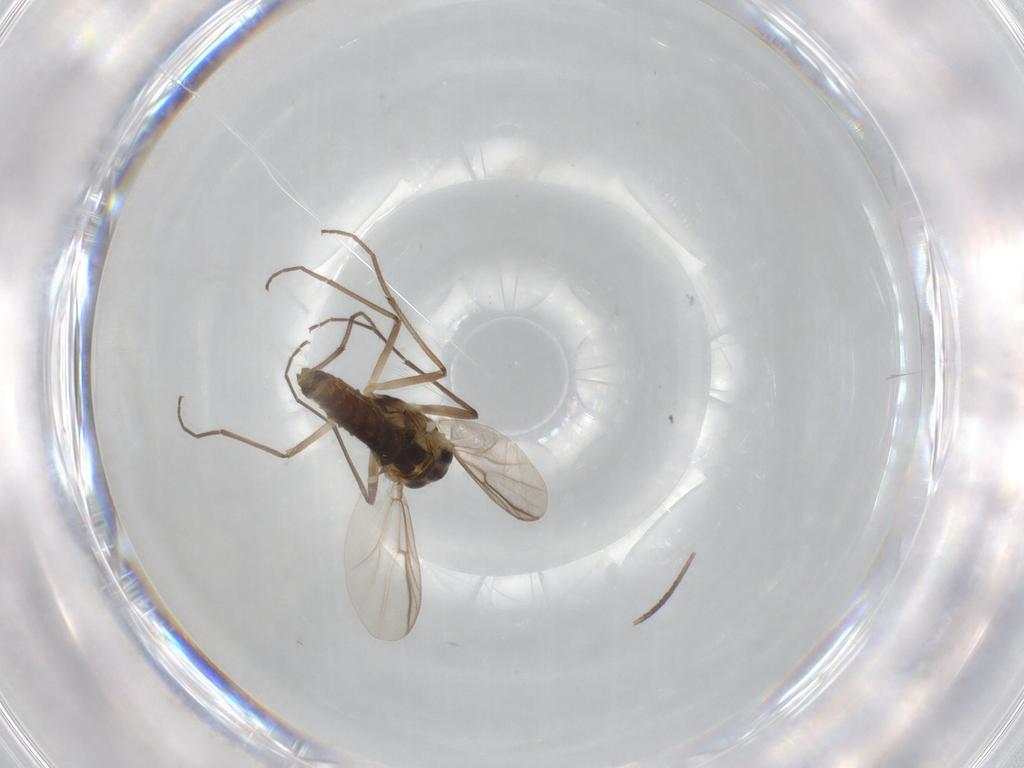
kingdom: Animalia
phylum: Arthropoda
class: Insecta
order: Diptera
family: Chironomidae
